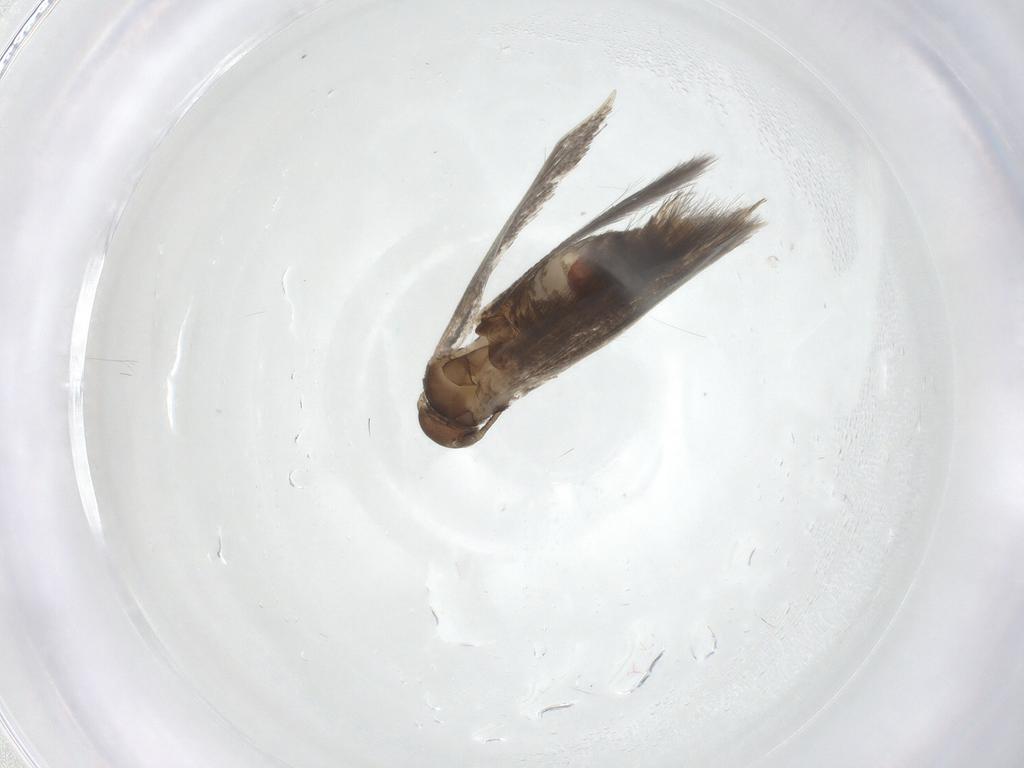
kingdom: Animalia
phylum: Arthropoda
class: Insecta
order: Lepidoptera
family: Elachistidae
